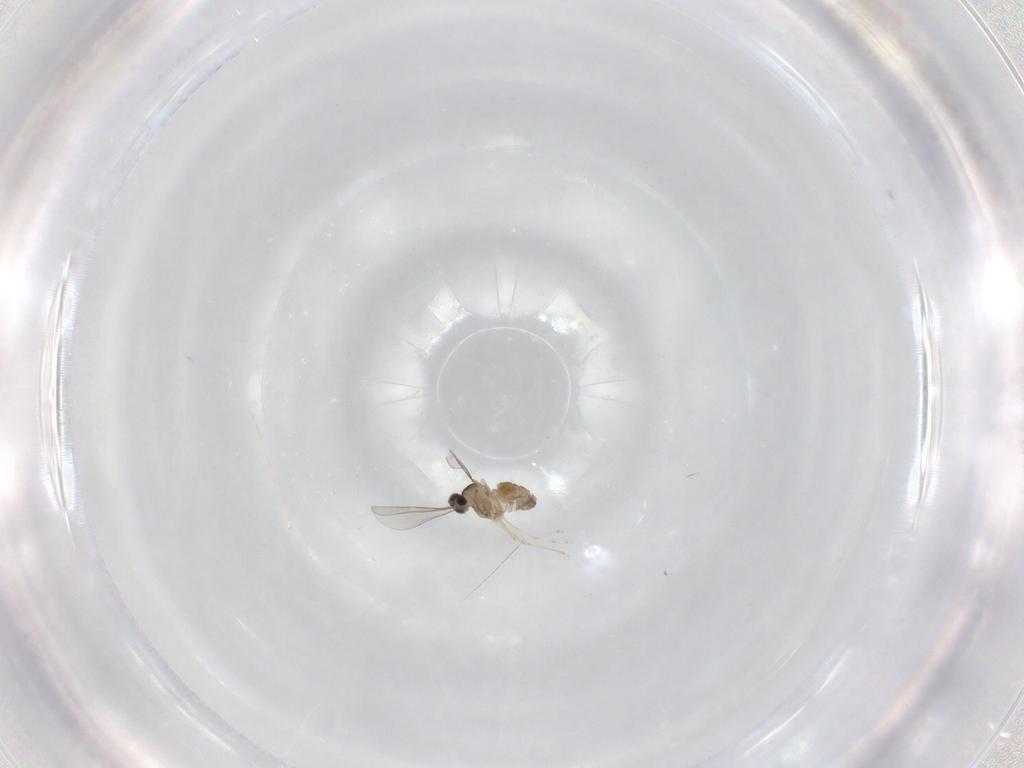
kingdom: Animalia
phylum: Arthropoda
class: Insecta
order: Diptera
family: Cecidomyiidae
